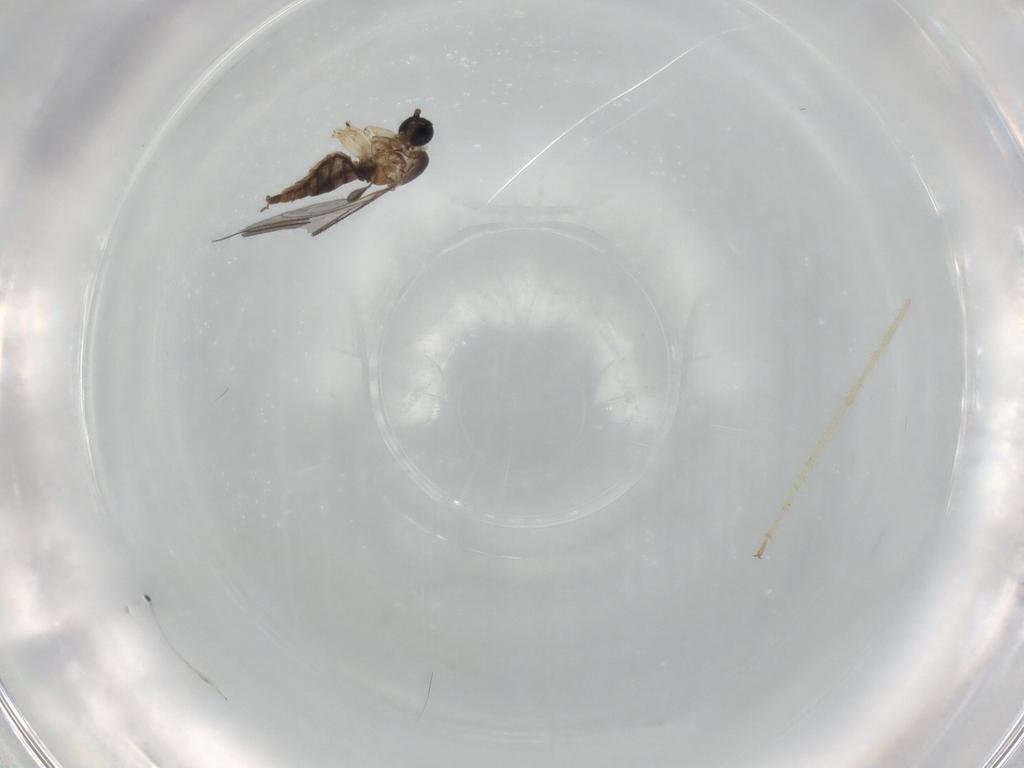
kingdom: Animalia
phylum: Arthropoda
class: Insecta
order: Diptera
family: Sciaridae
